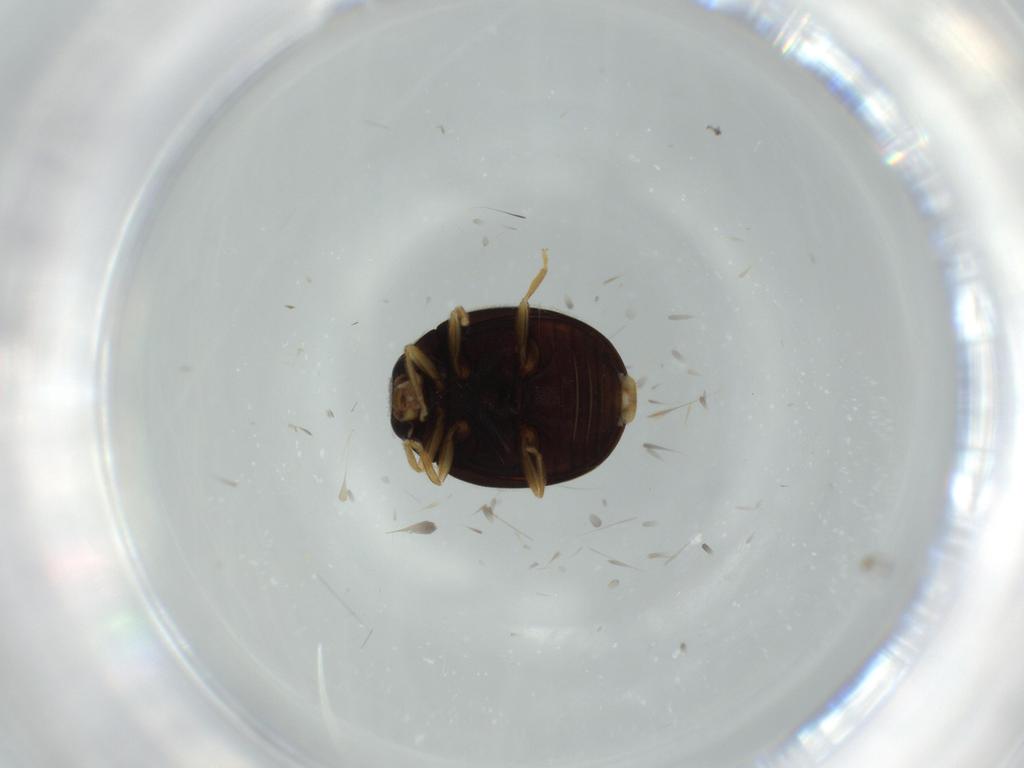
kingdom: Animalia
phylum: Arthropoda
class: Insecta
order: Coleoptera
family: Coccinellidae
